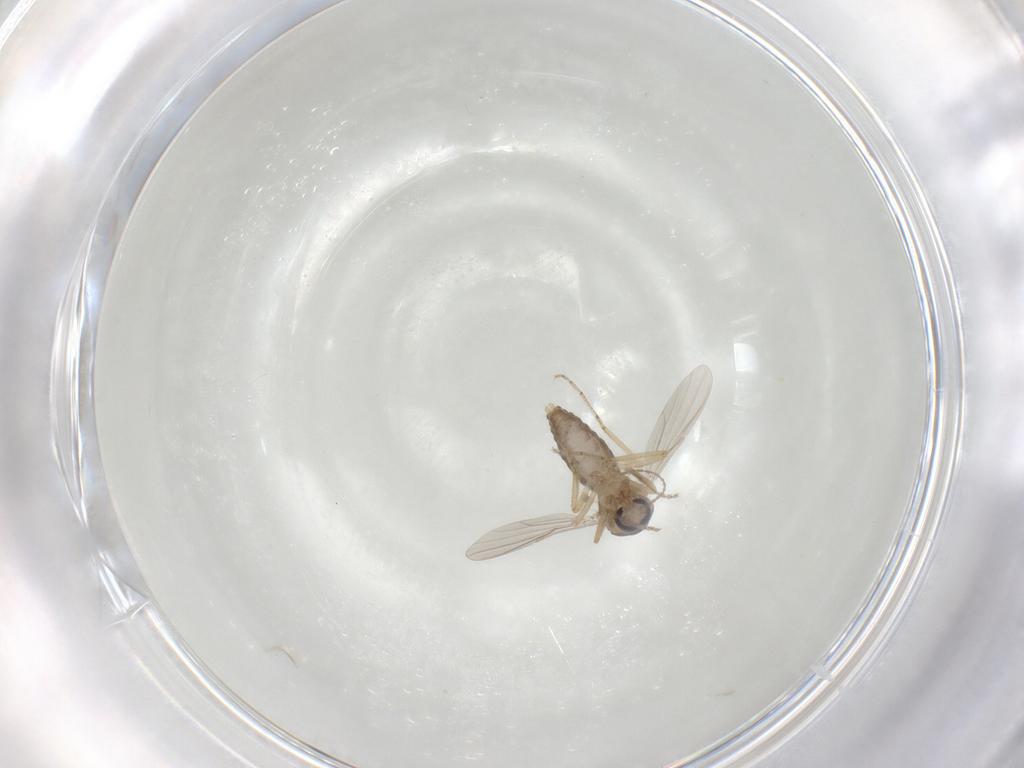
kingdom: Animalia
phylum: Arthropoda
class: Insecta
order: Diptera
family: Ceratopogonidae
